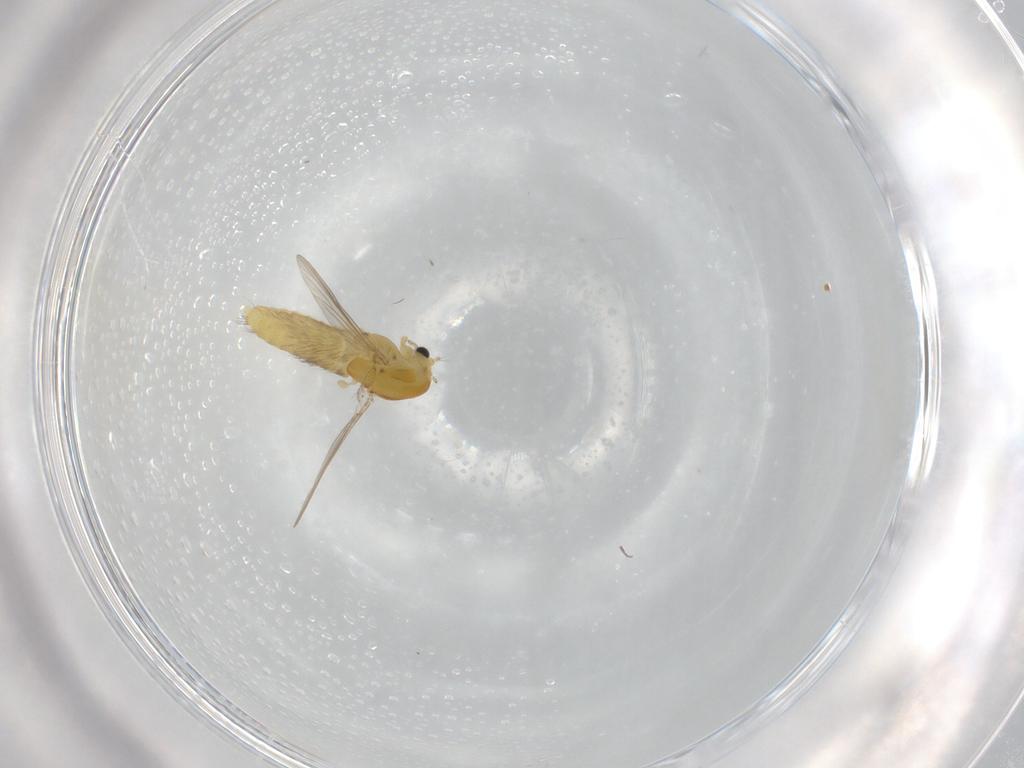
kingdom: Animalia
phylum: Arthropoda
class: Insecta
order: Diptera
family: Chironomidae
